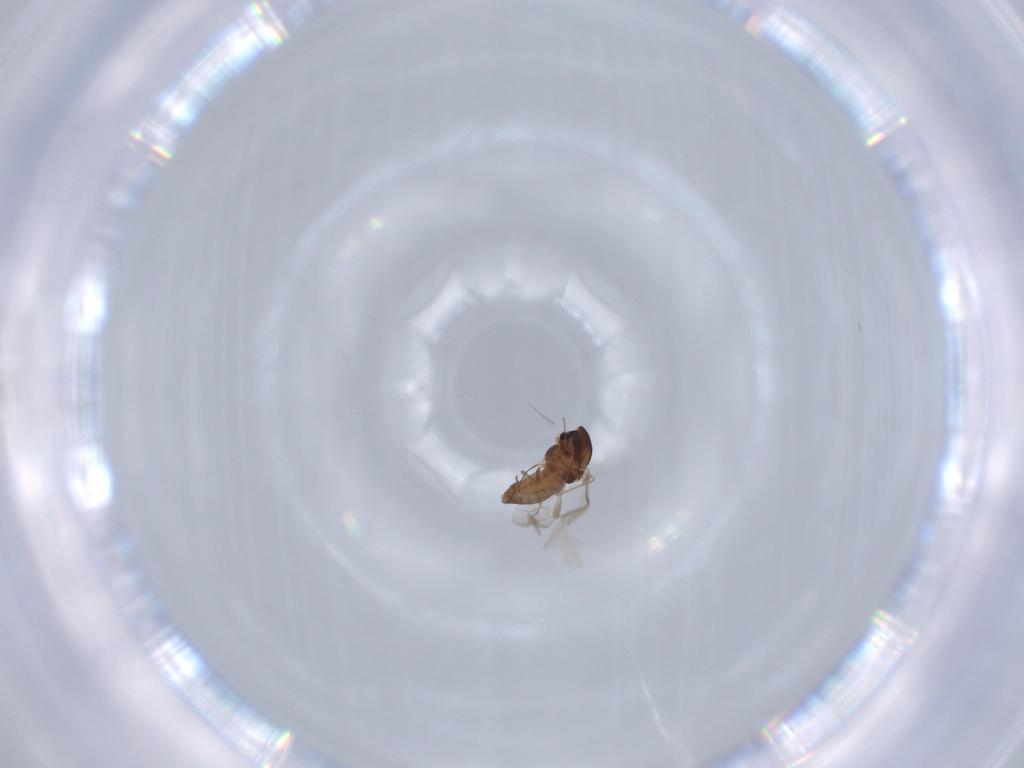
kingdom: Animalia
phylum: Arthropoda
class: Insecta
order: Diptera
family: Chironomidae
